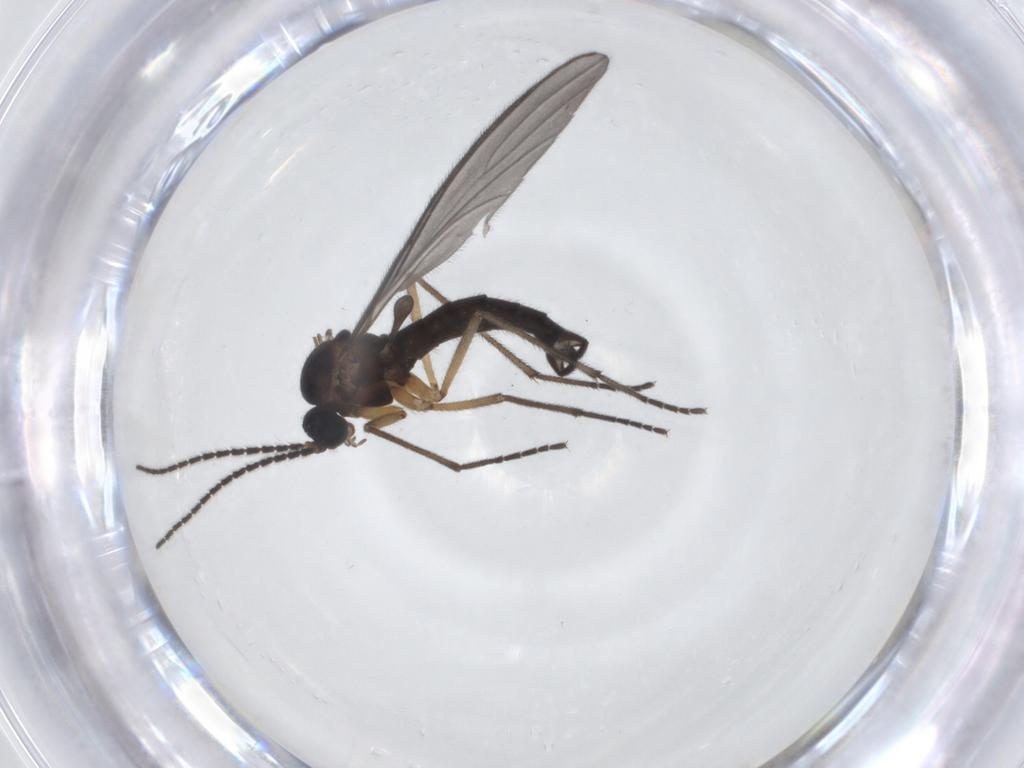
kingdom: Animalia
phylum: Arthropoda
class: Insecta
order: Diptera
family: Sciaridae
